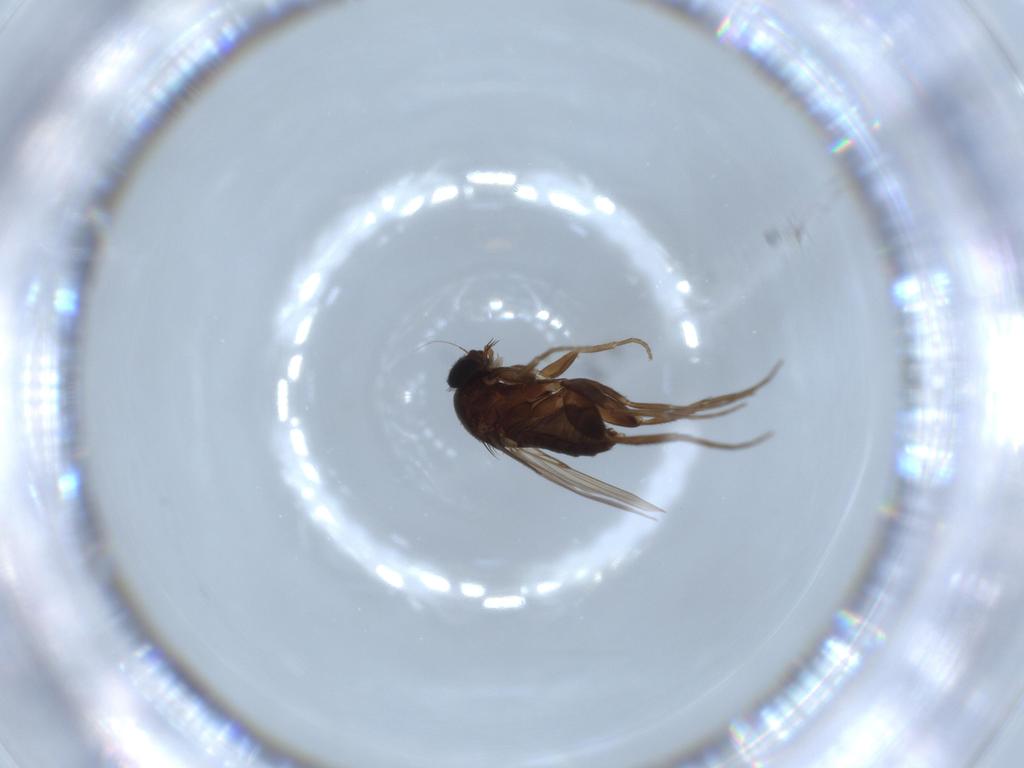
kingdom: Animalia
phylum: Arthropoda
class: Insecta
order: Diptera
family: Phoridae
